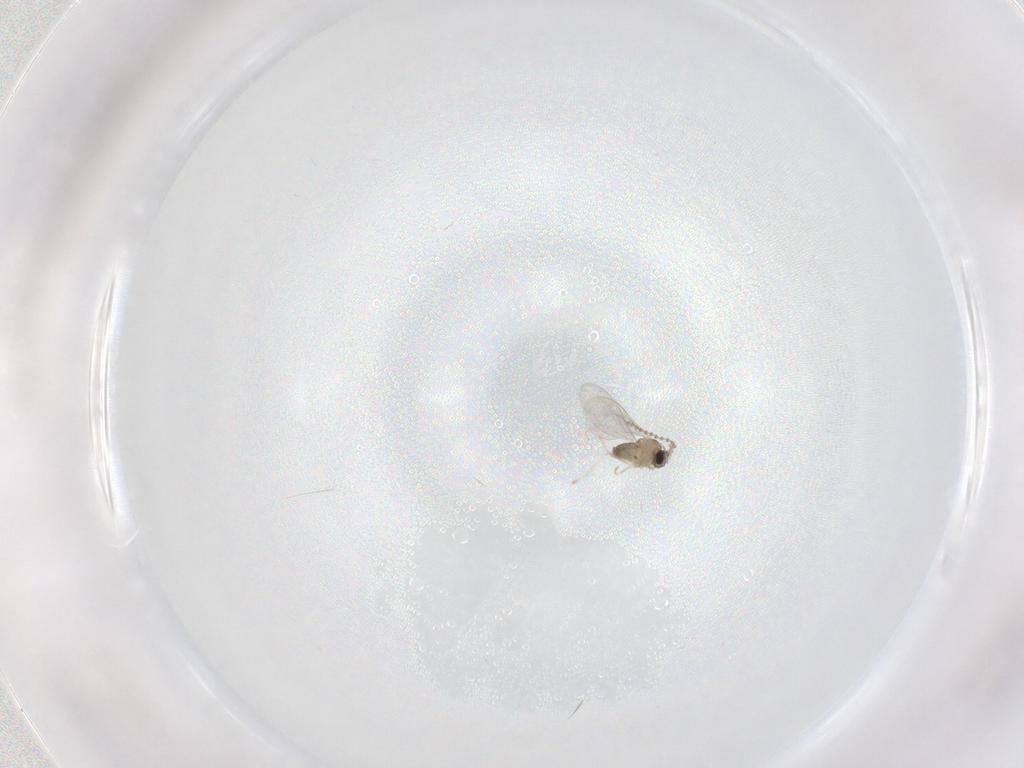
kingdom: Animalia
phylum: Arthropoda
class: Insecta
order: Diptera
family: Cecidomyiidae
